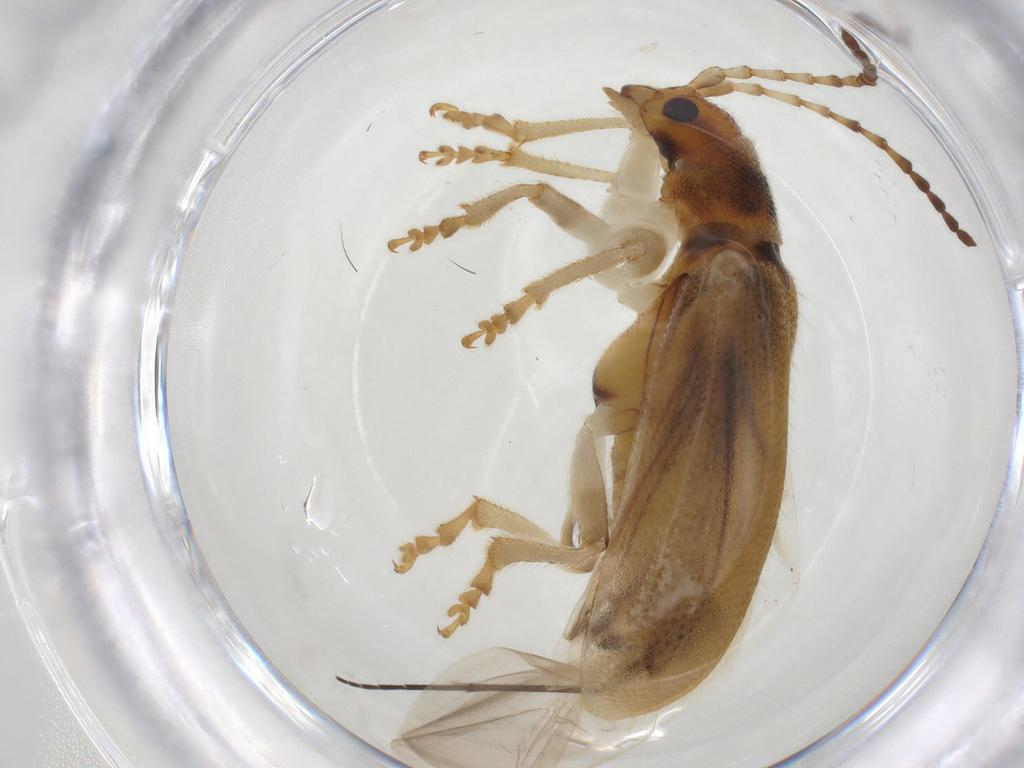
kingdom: Animalia
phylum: Arthropoda
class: Insecta
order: Coleoptera
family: Chrysomelidae
